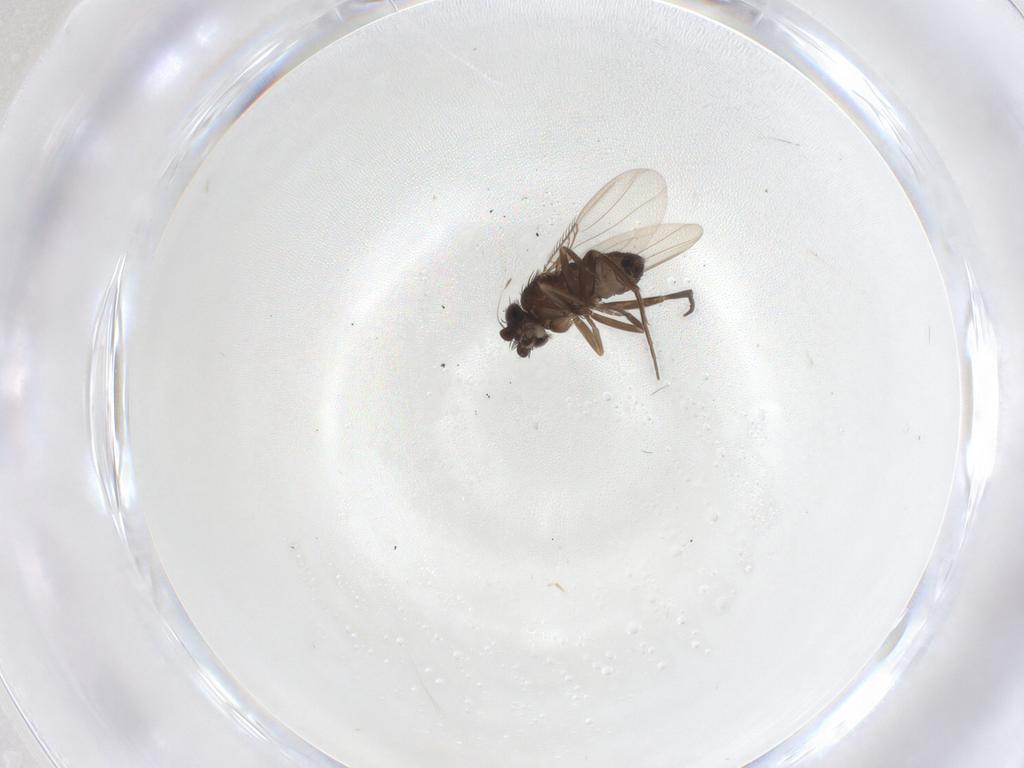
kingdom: Animalia
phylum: Arthropoda
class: Insecta
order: Diptera
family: Phoridae
